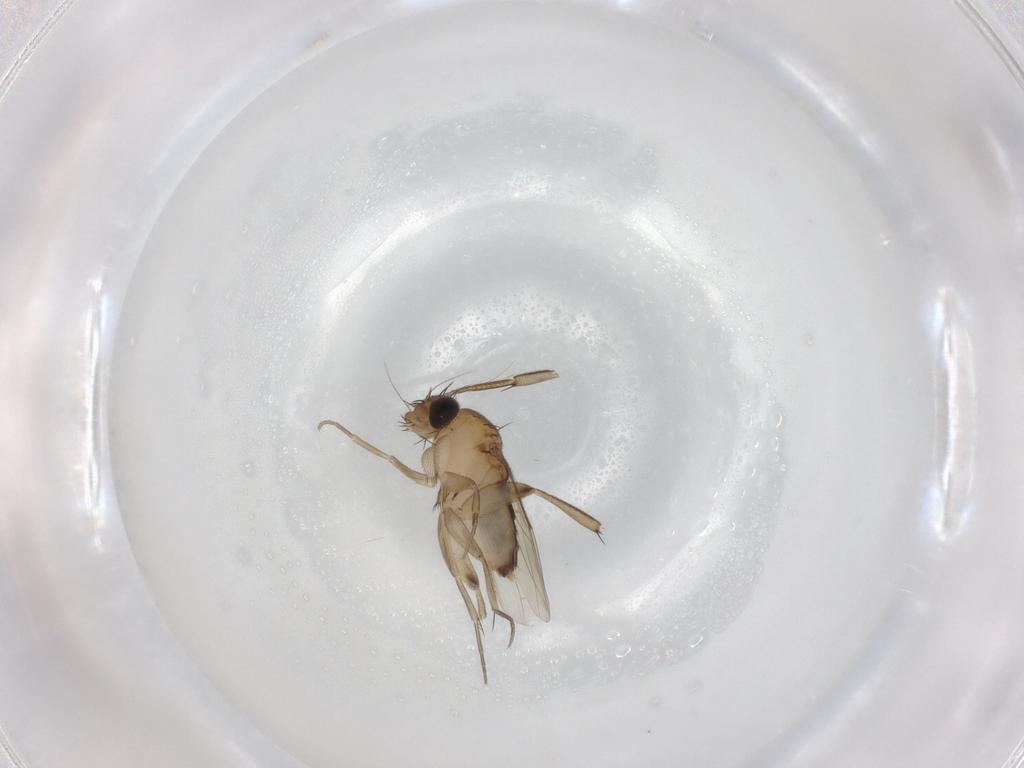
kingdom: Animalia
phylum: Arthropoda
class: Insecta
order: Diptera
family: Phoridae
